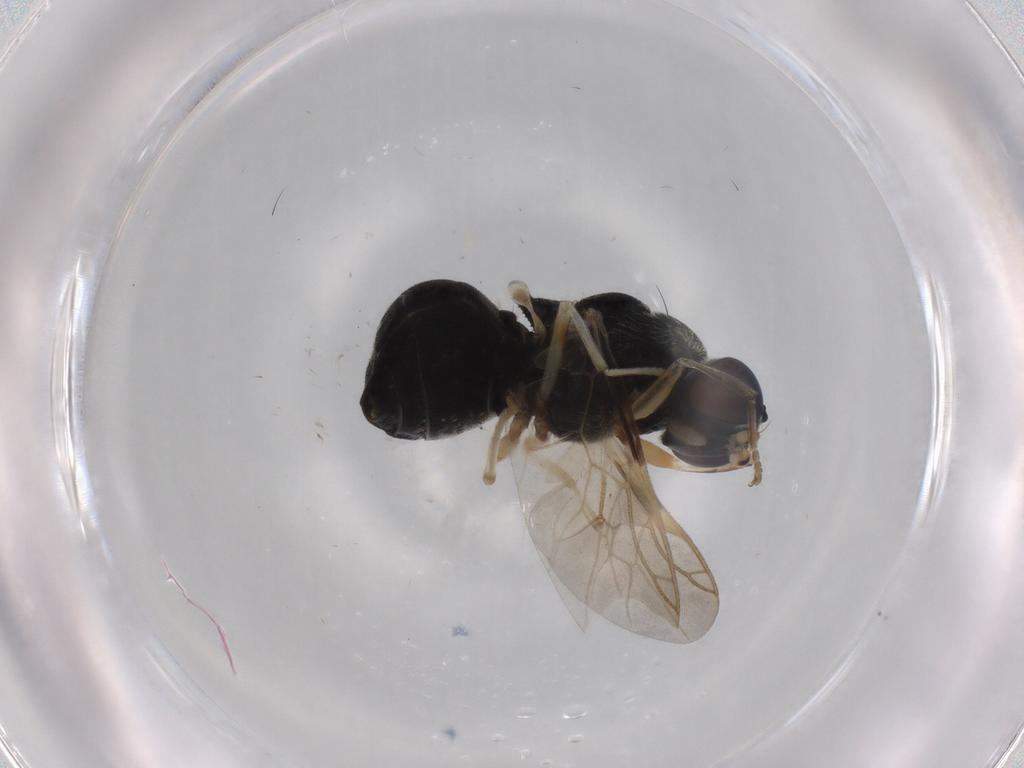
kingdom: Animalia
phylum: Arthropoda
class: Insecta
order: Diptera
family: Stratiomyidae
